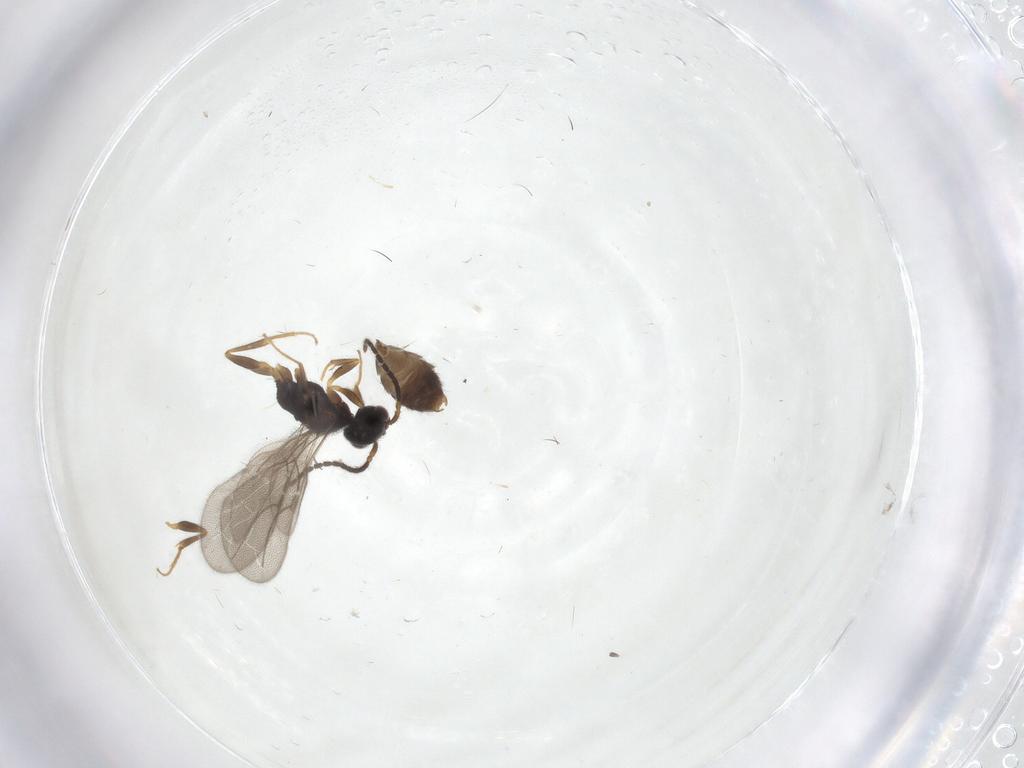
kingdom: Animalia
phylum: Arthropoda
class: Insecta
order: Hymenoptera
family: Bethylidae
